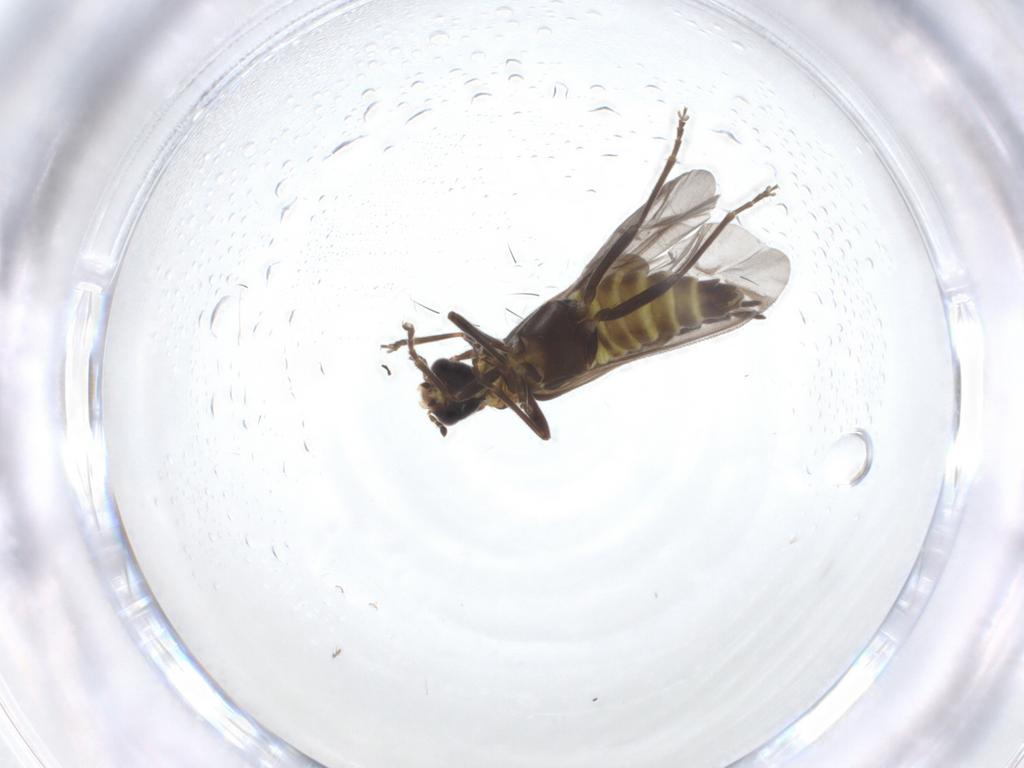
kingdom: Animalia
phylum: Arthropoda
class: Insecta
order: Coleoptera
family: Cantharidae
